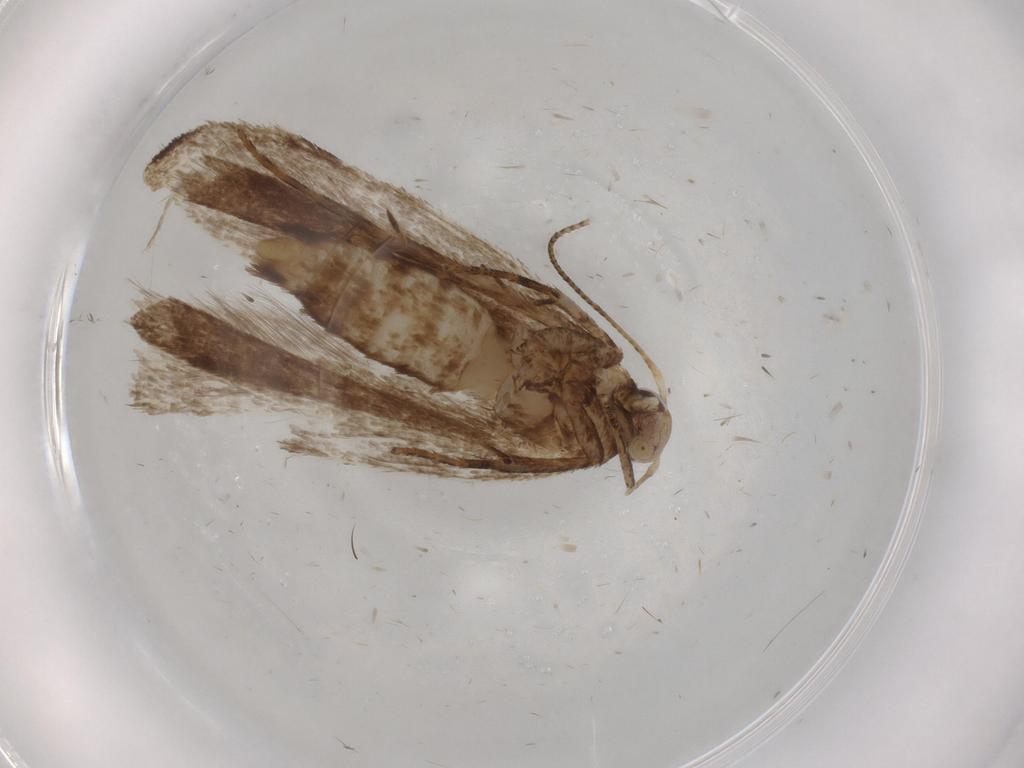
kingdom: Animalia
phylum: Arthropoda
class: Insecta
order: Lepidoptera
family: Gelechiidae
